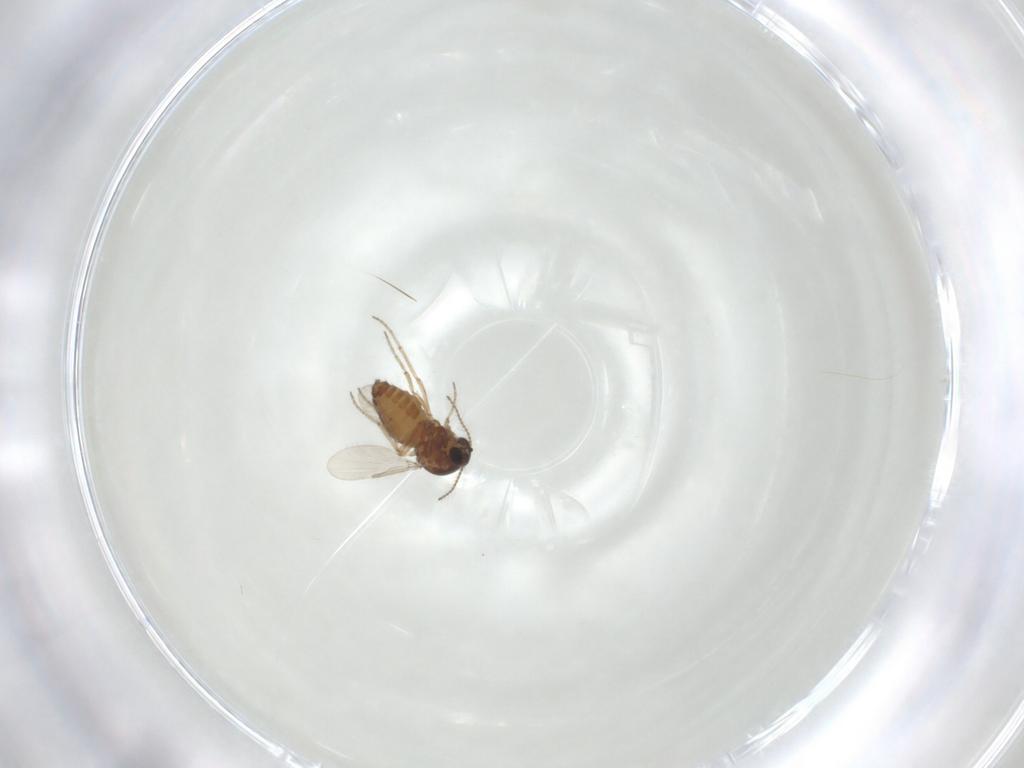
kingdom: Animalia
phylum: Arthropoda
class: Insecta
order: Diptera
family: Ceratopogonidae
